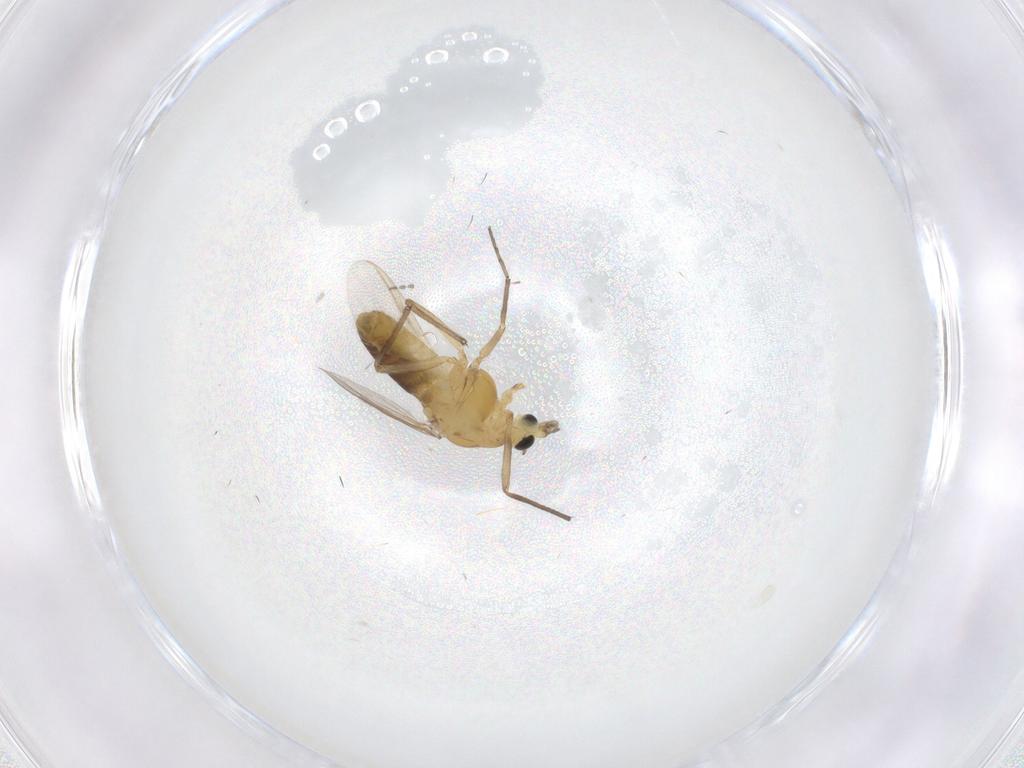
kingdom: Animalia
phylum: Arthropoda
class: Insecta
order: Diptera
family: Chironomidae
